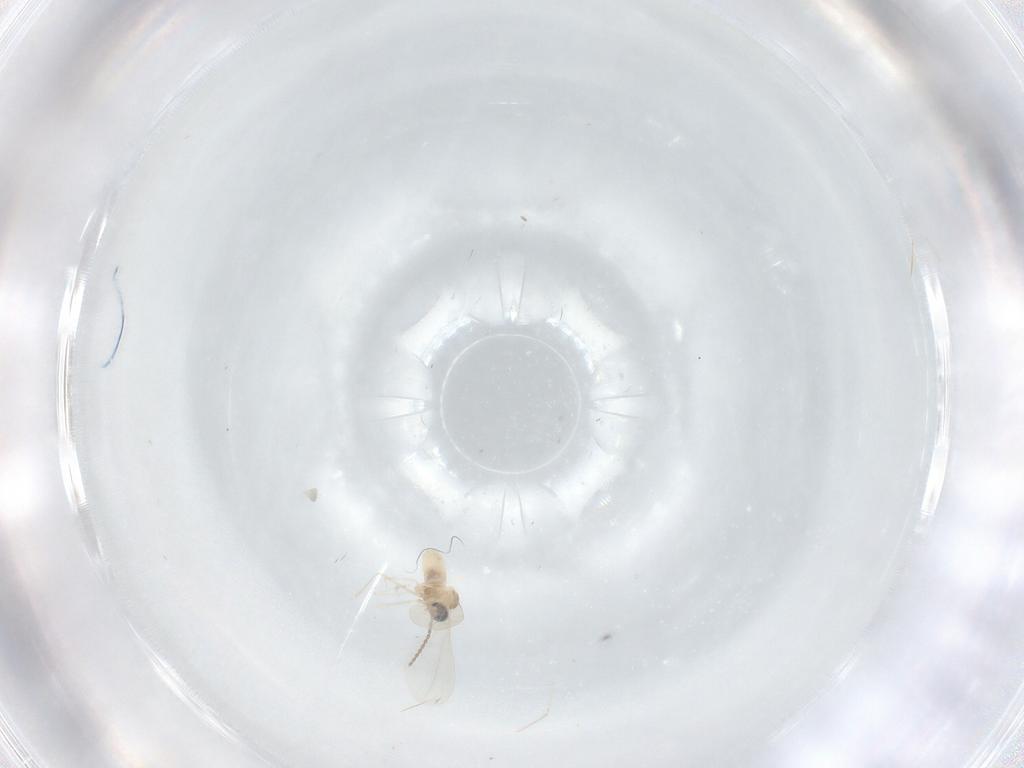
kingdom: Animalia
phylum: Arthropoda
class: Insecta
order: Diptera
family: Cecidomyiidae
